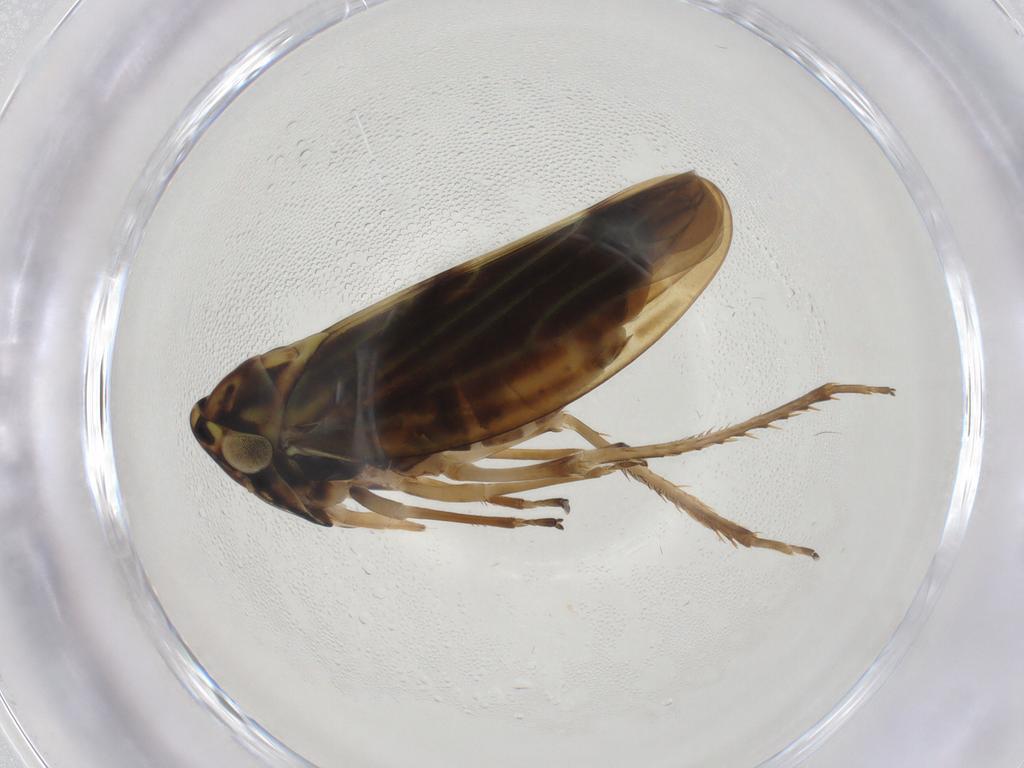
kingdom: Animalia
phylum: Arthropoda
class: Insecta
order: Hemiptera
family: Cicadellidae
